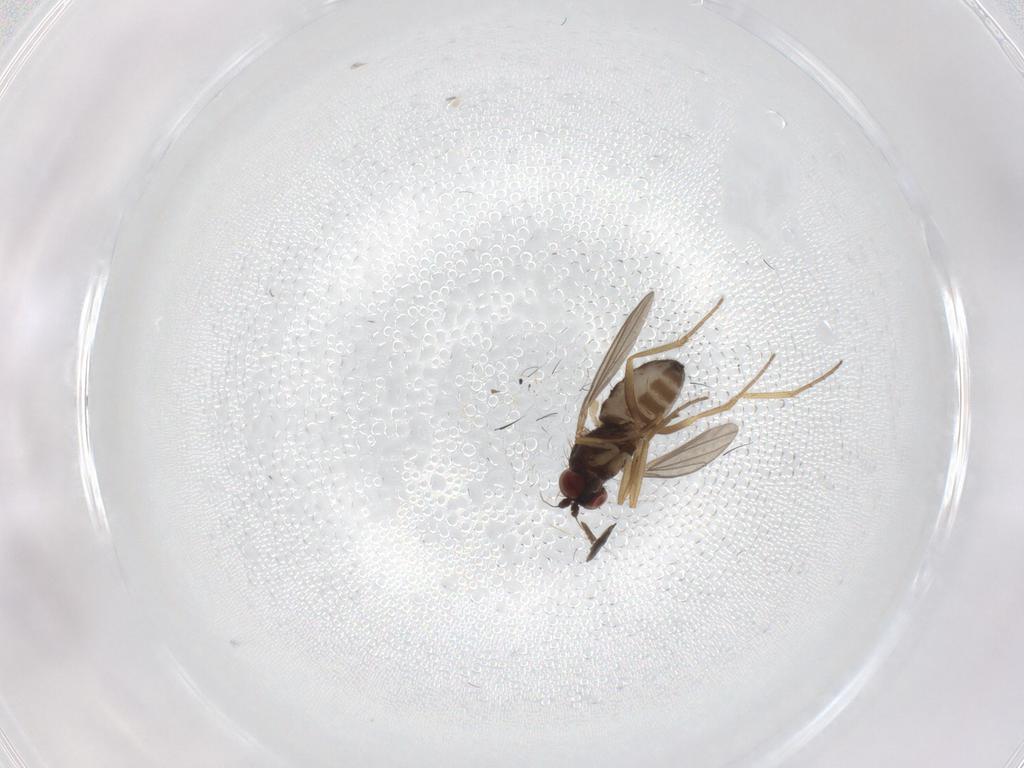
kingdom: Animalia
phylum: Arthropoda
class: Insecta
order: Diptera
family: Dolichopodidae
